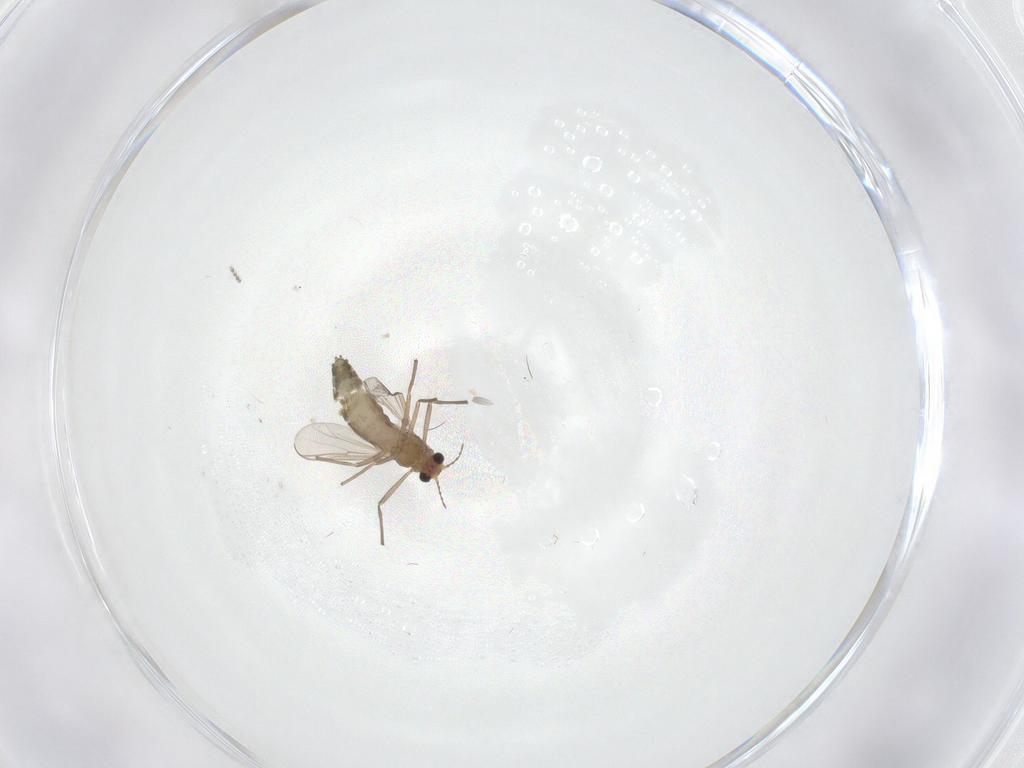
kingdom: Animalia
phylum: Arthropoda
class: Insecta
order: Diptera
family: Chironomidae
